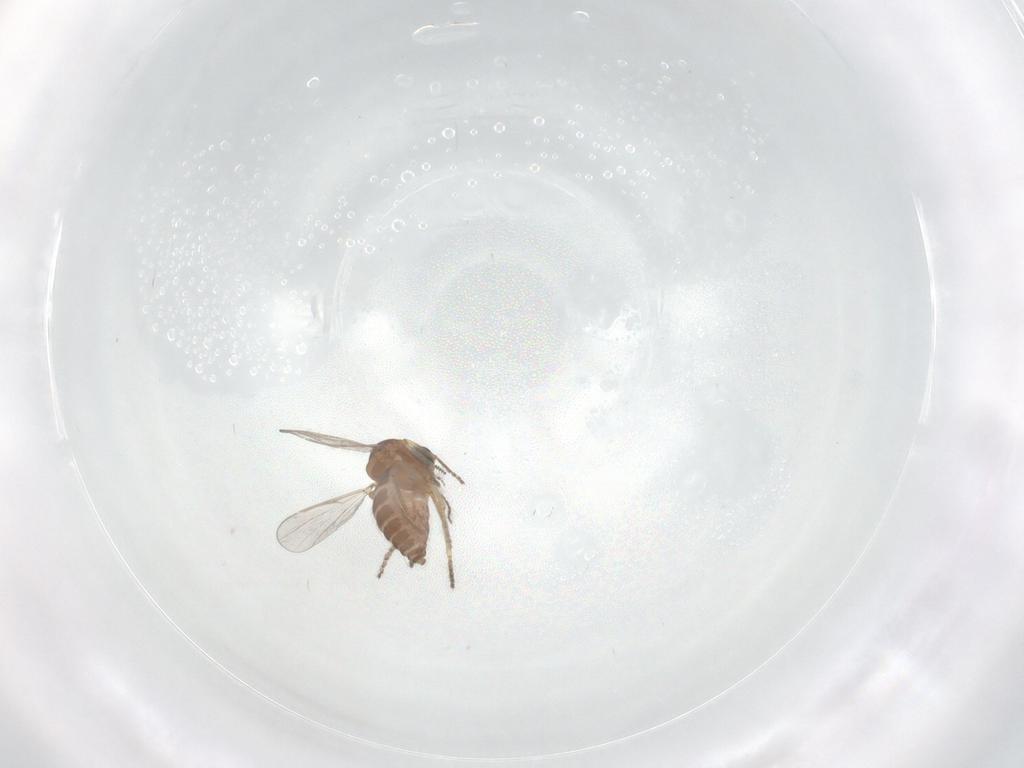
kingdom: Animalia
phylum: Arthropoda
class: Insecta
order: Diptera
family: Ceratopogonidae
